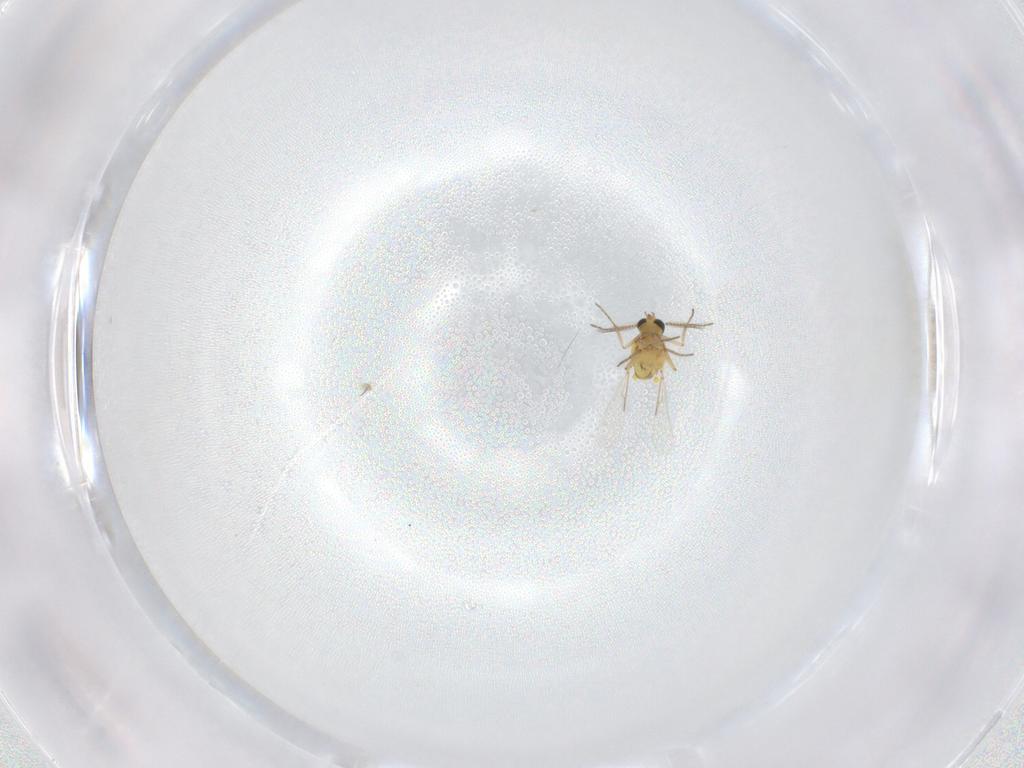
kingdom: Animalia
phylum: Arthropoda
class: Insecta
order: Diptera
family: Ceratopogonidae
